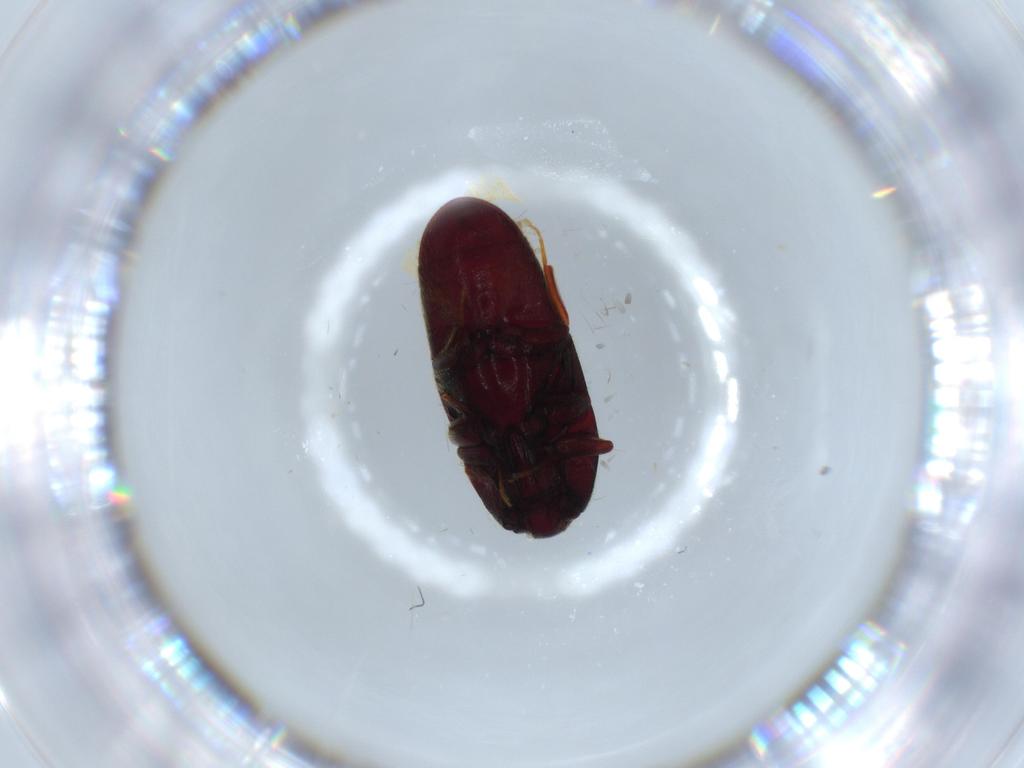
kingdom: Animalia
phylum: Arthropoda
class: Insecta
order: Coleoptera
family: Throscidae
